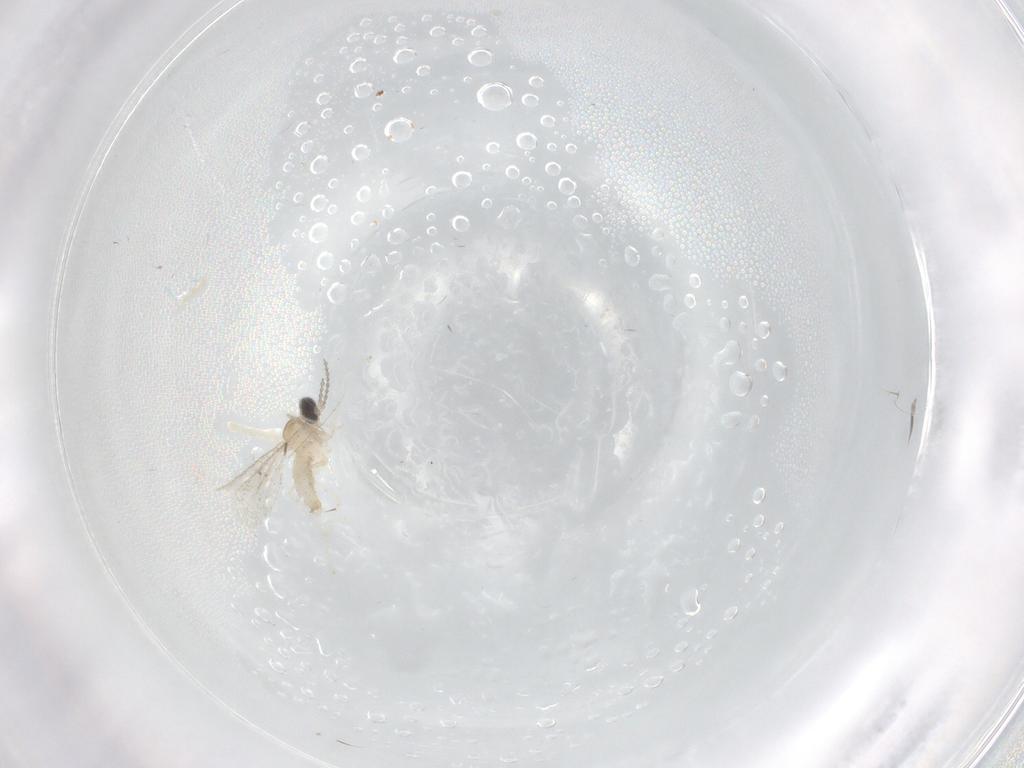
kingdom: Animalia
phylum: Arthropoda
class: Insecta
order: Diptera
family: Cecidomyiidae
